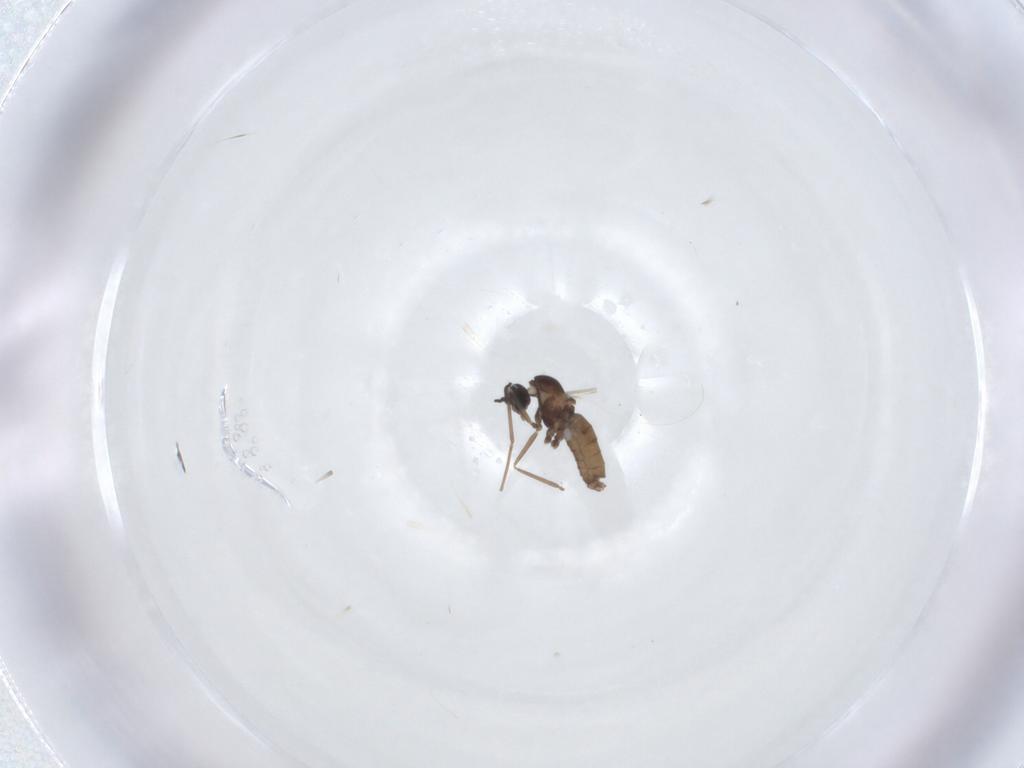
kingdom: Animalia
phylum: Arthropoda
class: Insecta
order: Diptera
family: Cecidomyiidae
